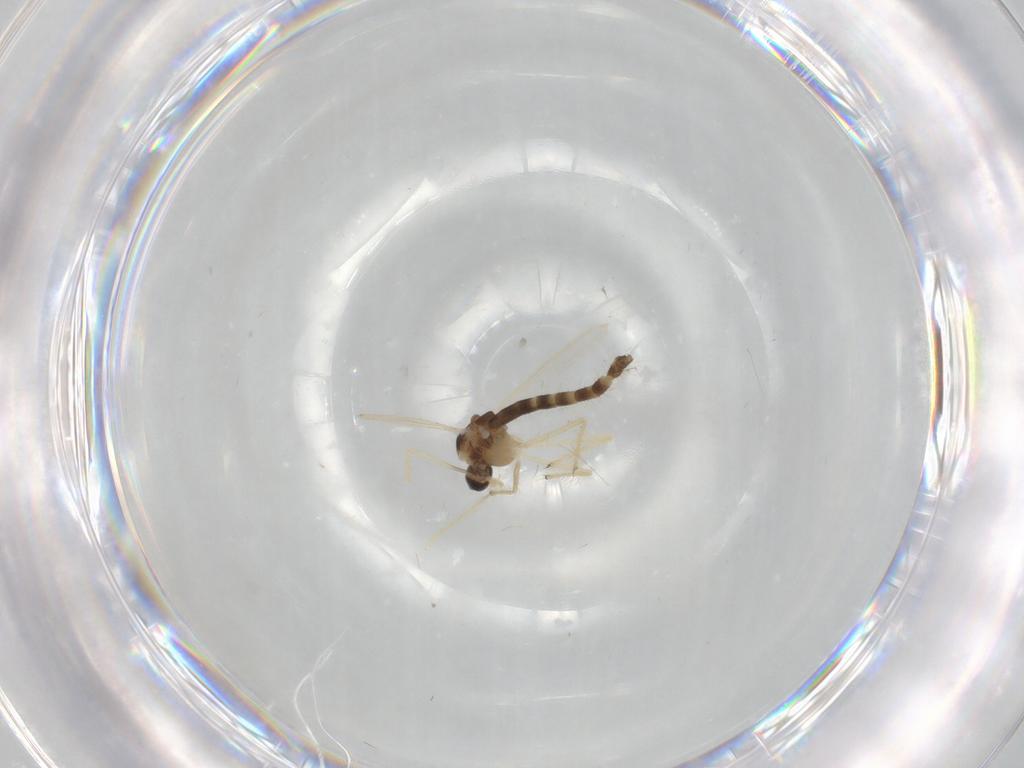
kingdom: Animalia
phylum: Arthropoda
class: Insecta
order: Diptera
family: Chironomidae
